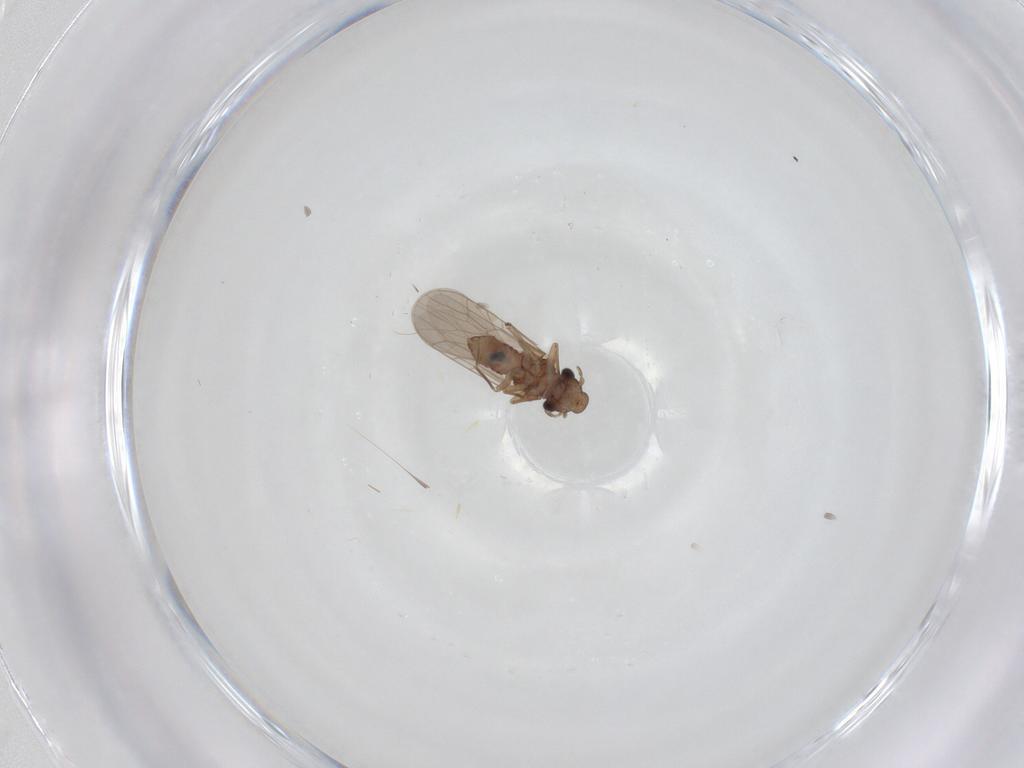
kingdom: Animalia
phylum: Arthropoda
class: Insecta
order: Psocodea
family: Lepidopsocidae
